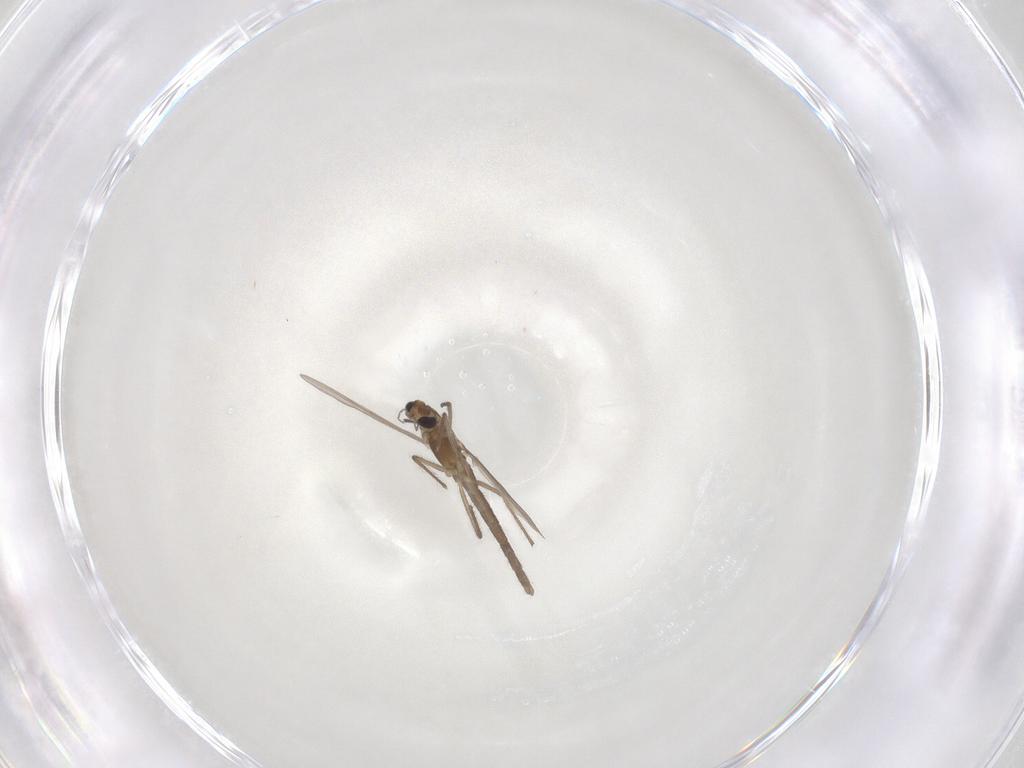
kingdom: Animalia
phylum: Arthropoda
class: Insecta
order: Diptera
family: Chironomidae
